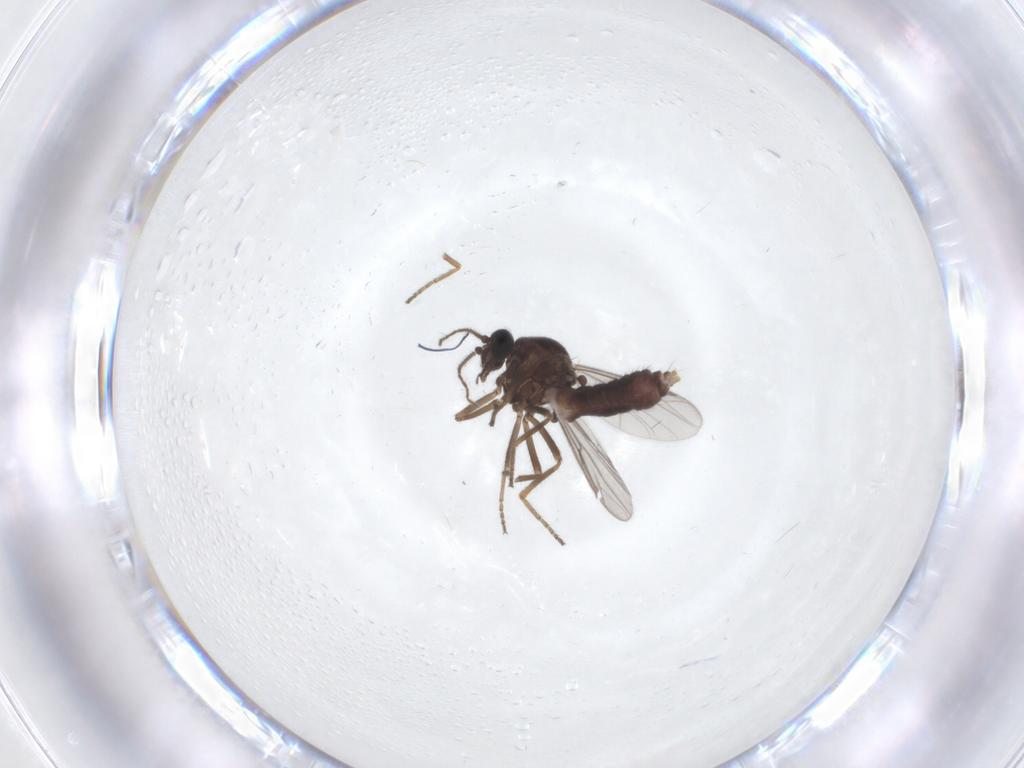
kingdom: Animalia
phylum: Arthropoda
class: Insecta
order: Diptera
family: Ceratopogonidae
